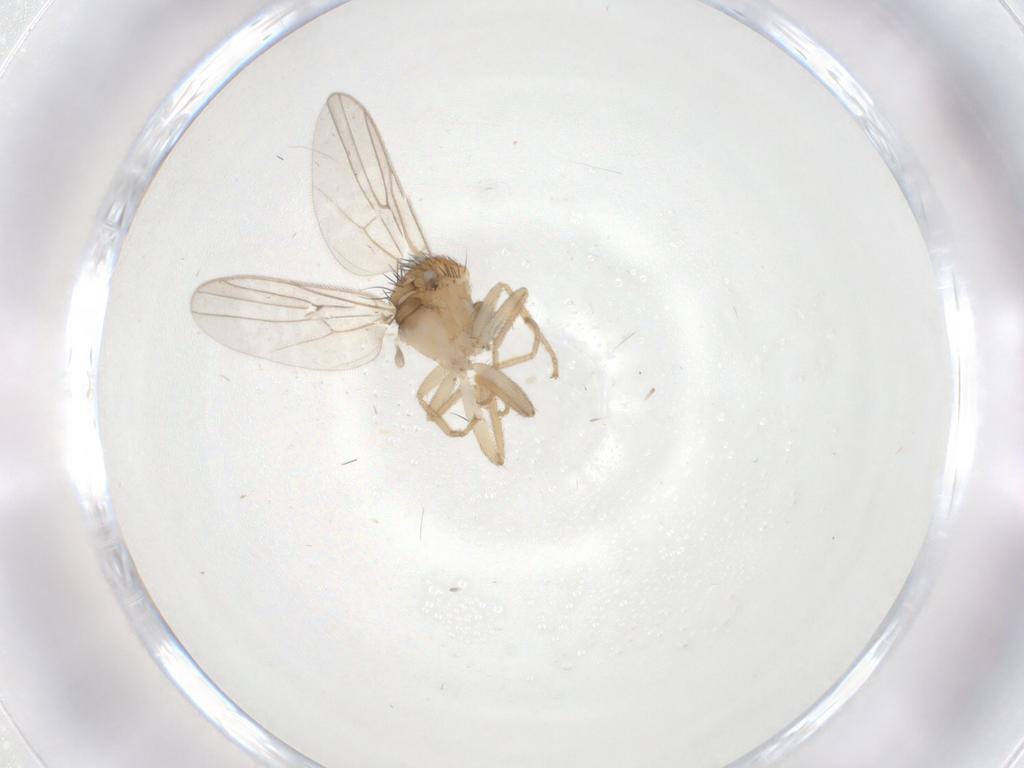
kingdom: Animalia
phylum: Arthropoda
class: Insecta
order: Diptera
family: Hybotidae
